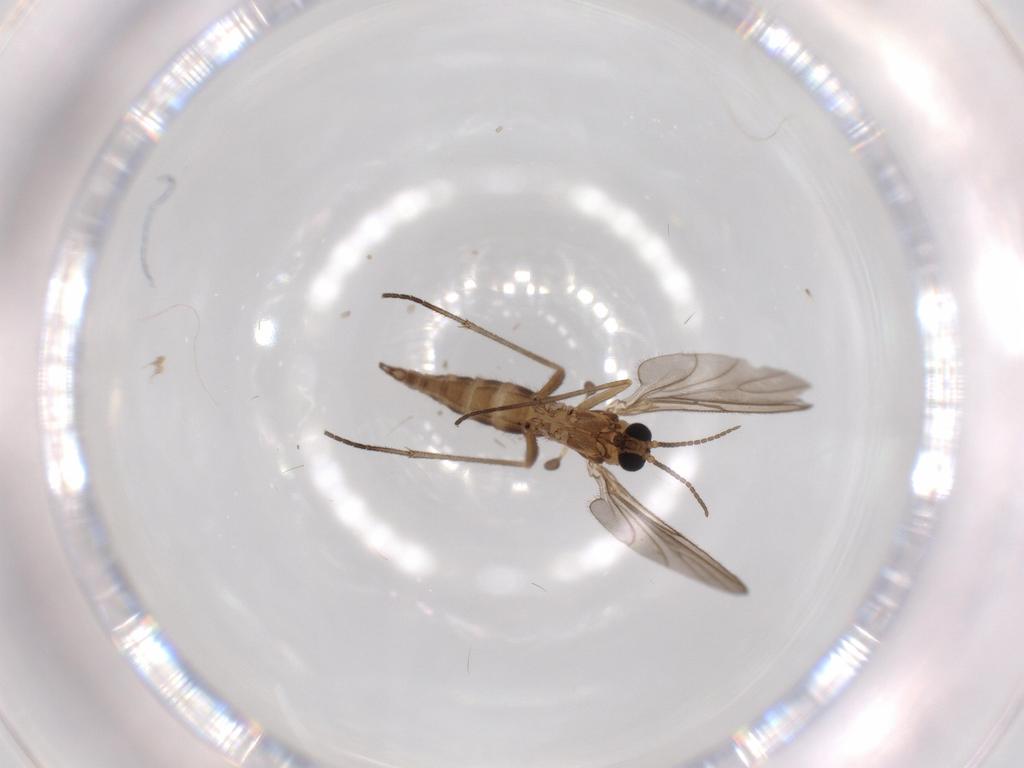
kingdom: Animalia
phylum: Arthropoda
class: Insecta
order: Diptera
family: Sciaridae
